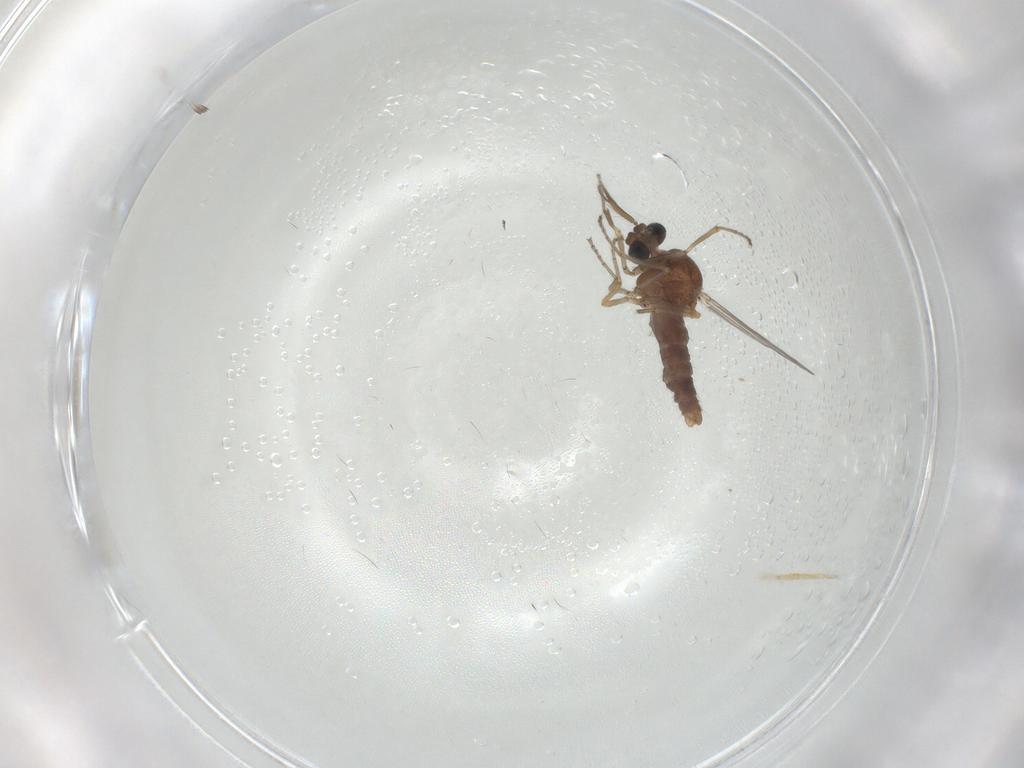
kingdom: Animalia
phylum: Arthropoda
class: Insecta
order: Diptera
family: Ceratopogonidae
